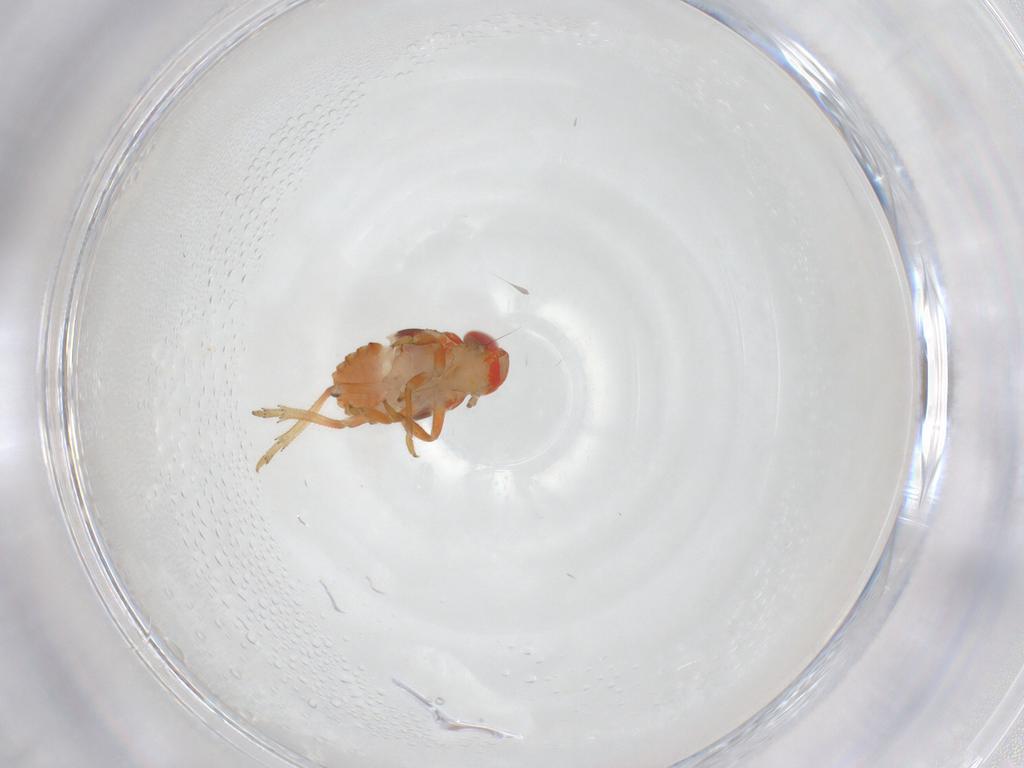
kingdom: Animalia
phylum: Arthropoda
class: Insecta
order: Hemiptera
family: Issidae
